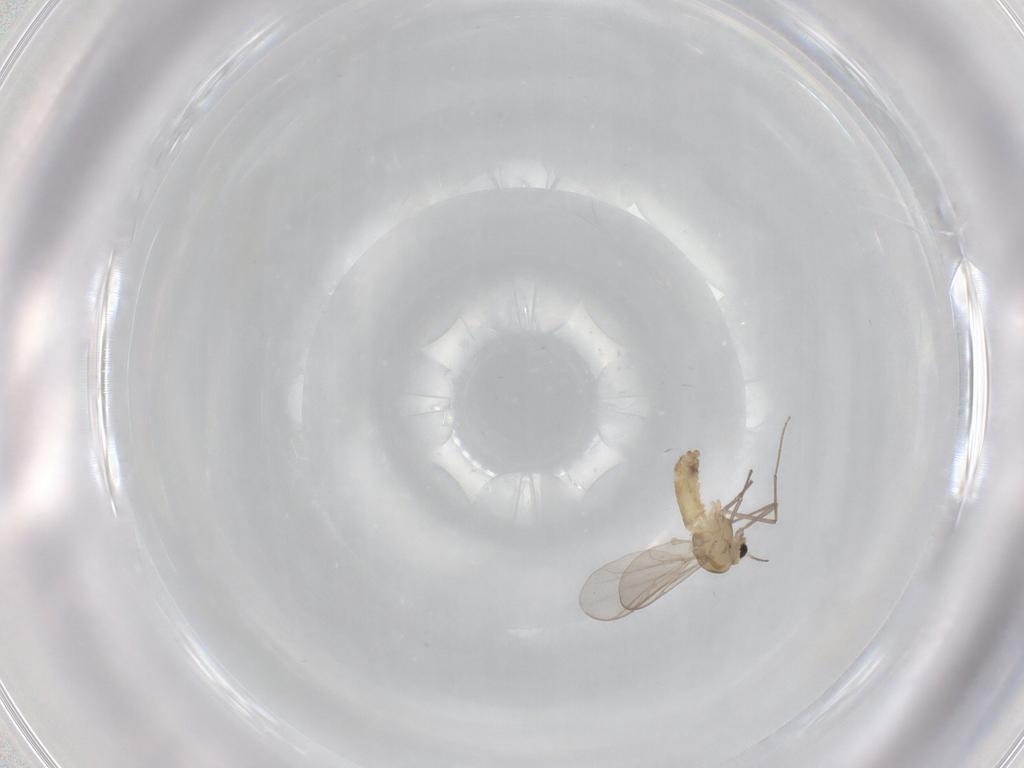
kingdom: Animalia
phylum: Arthropoda
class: Insecta
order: Diptera
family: Chironomidae
